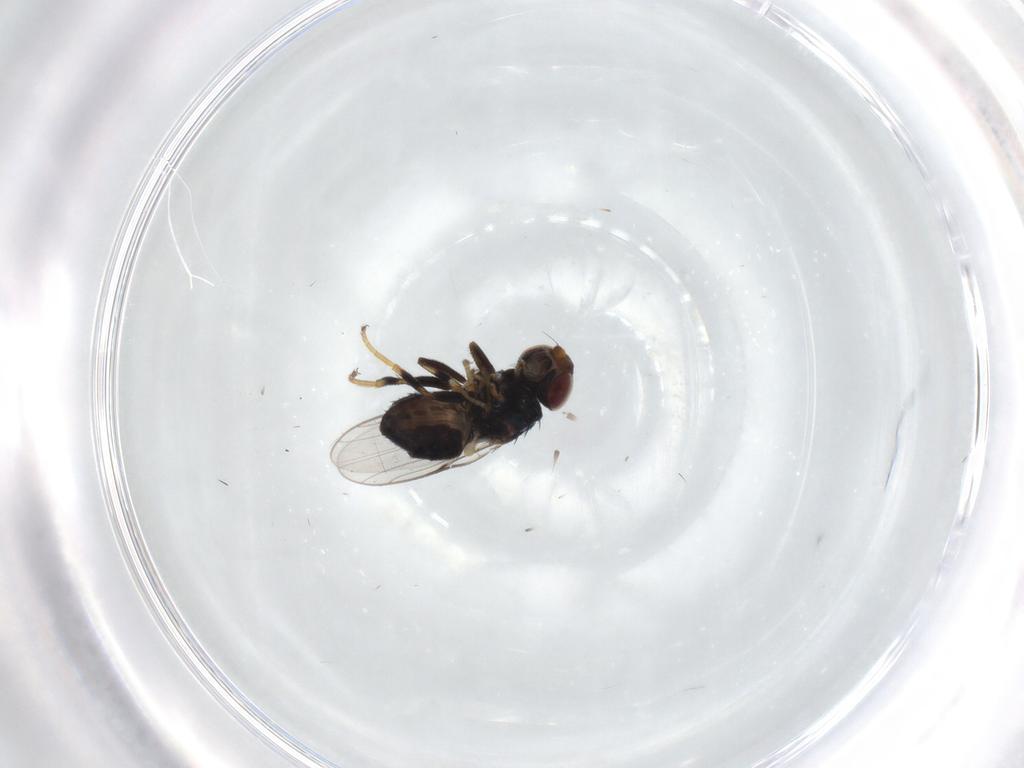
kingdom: Animalia
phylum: Arthropoda
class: Insecta
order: Diptera
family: Chloropidae
